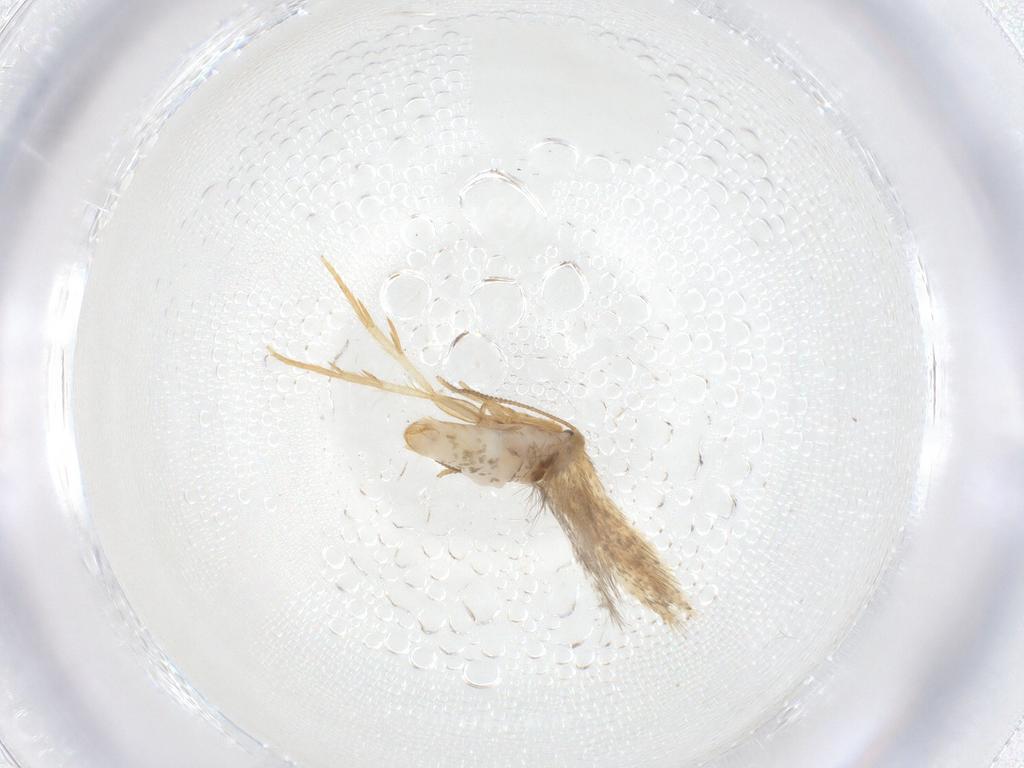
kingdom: Animalia
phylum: Arthropoda
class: Insecta
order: Lepidoptera
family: Nepticulidae
